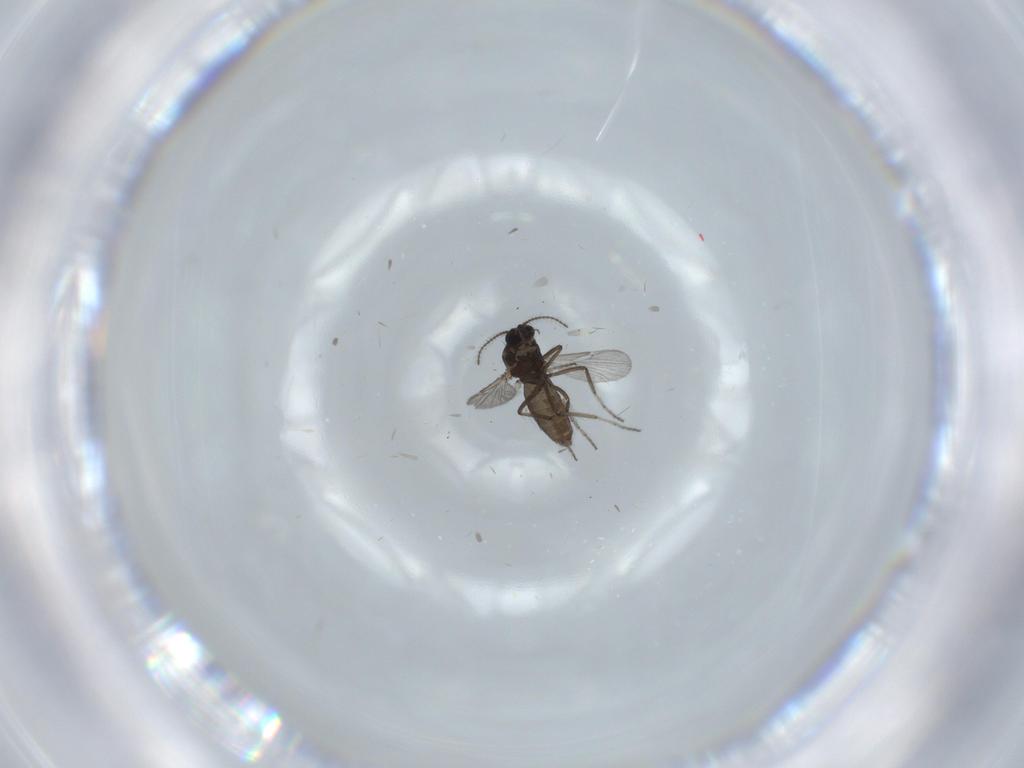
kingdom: Animalia
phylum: Arthropoda
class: Insecta
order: Diptera
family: Ceratopogonidae
